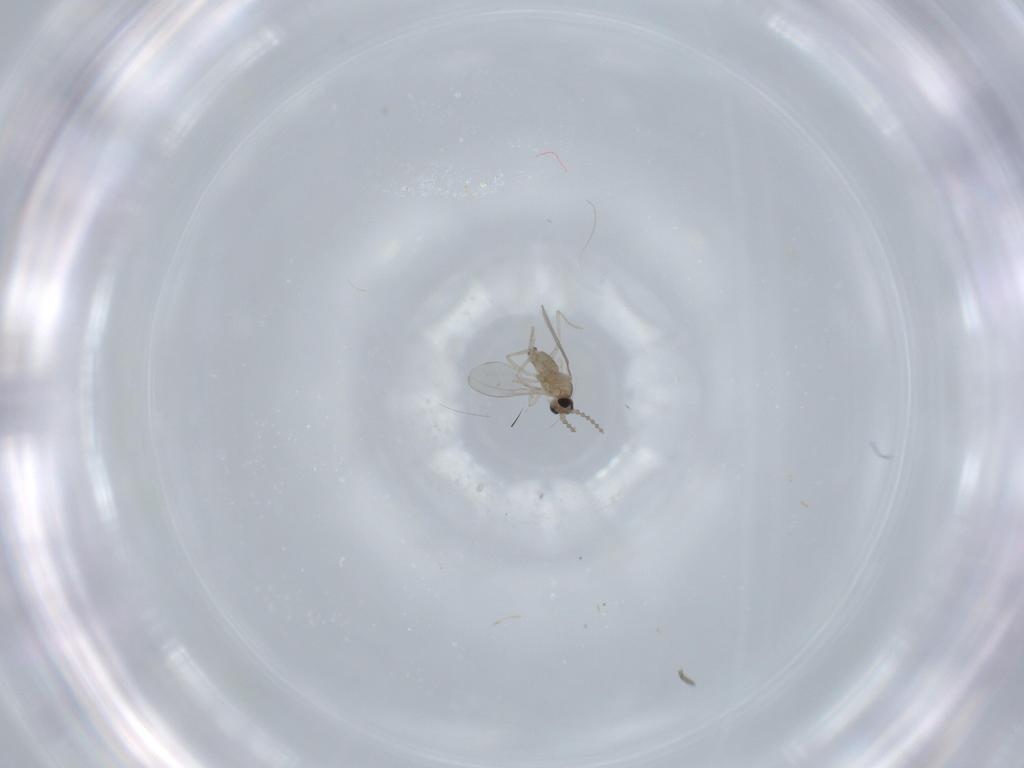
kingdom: Animalia
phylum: Arthropoda
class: Insecta
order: Diptera
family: Cecidomyiidae
